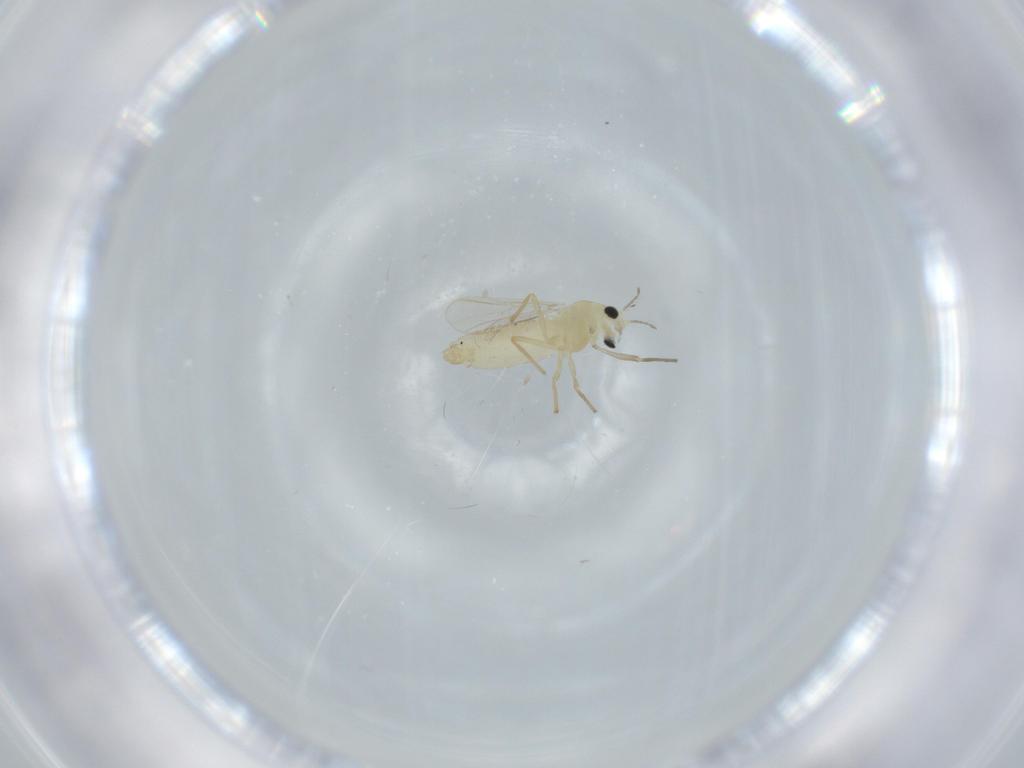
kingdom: Animalia
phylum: Arthropoda
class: Insecta
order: Diptera
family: Chironomidae
